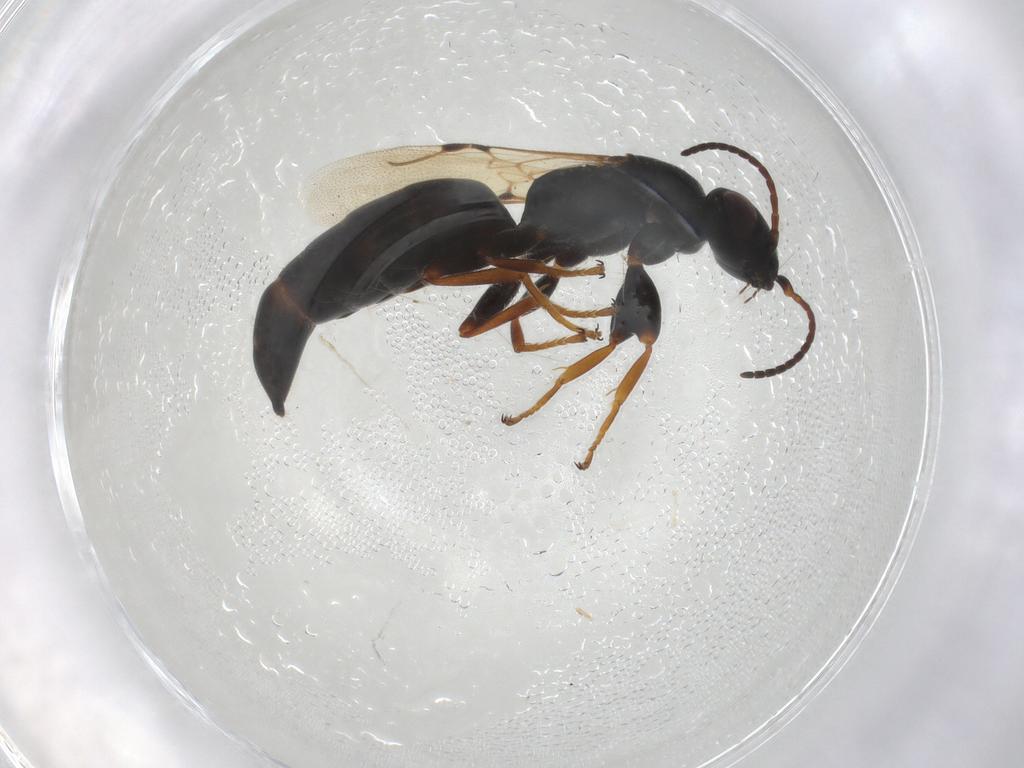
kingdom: Animalia
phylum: Arthropoda
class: Insecta
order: Hymenoptera
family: Bethylidae
